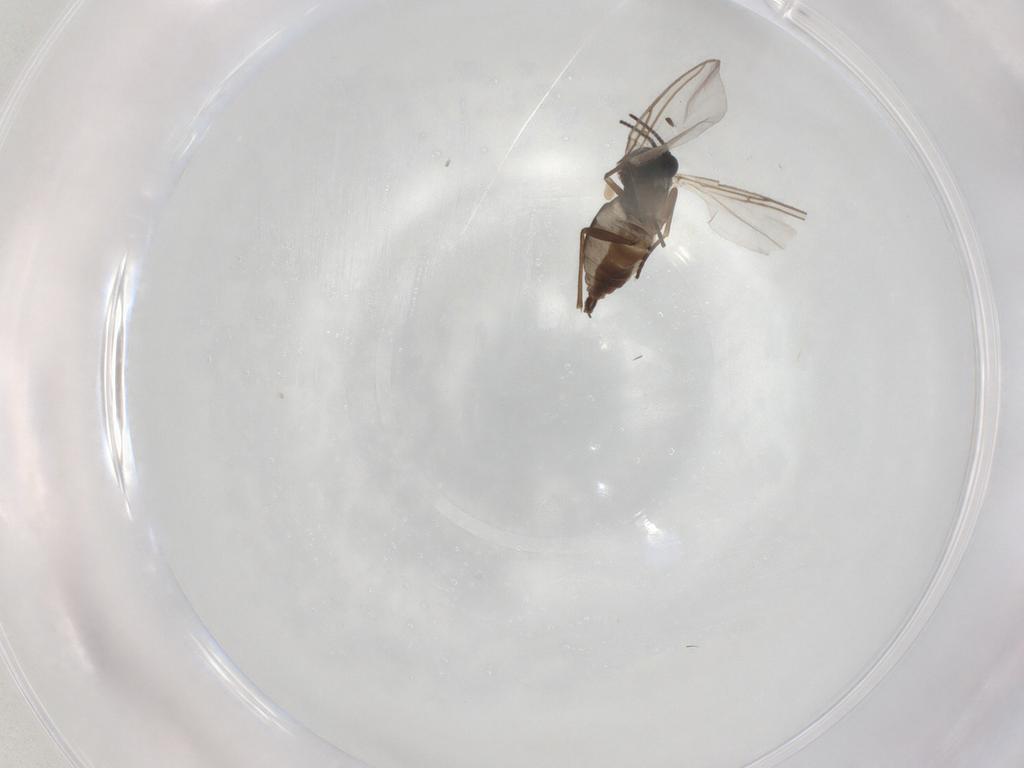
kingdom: Animalia
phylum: Arthropoda
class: Insecta
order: Diptera
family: Sciaridae
